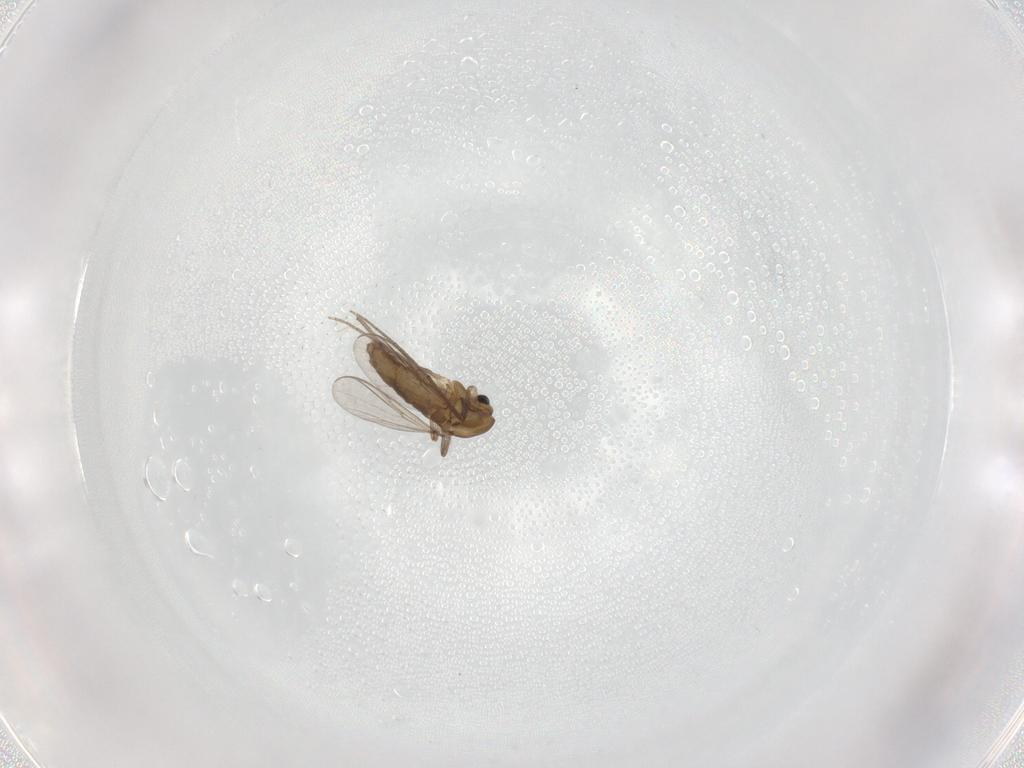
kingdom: Animalia
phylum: Arthropoda
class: Insecta
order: Diptera
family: Chironomidae
